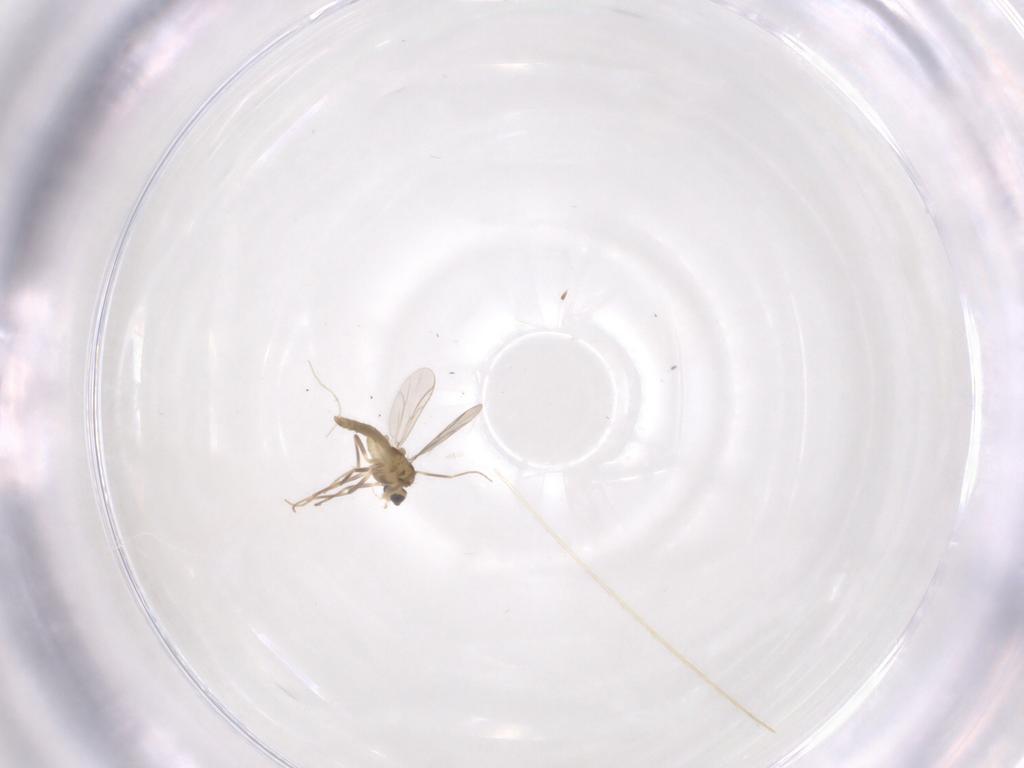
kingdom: Animalia
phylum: Arthropoda
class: Insecta
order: Diptera
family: Chironomidae
